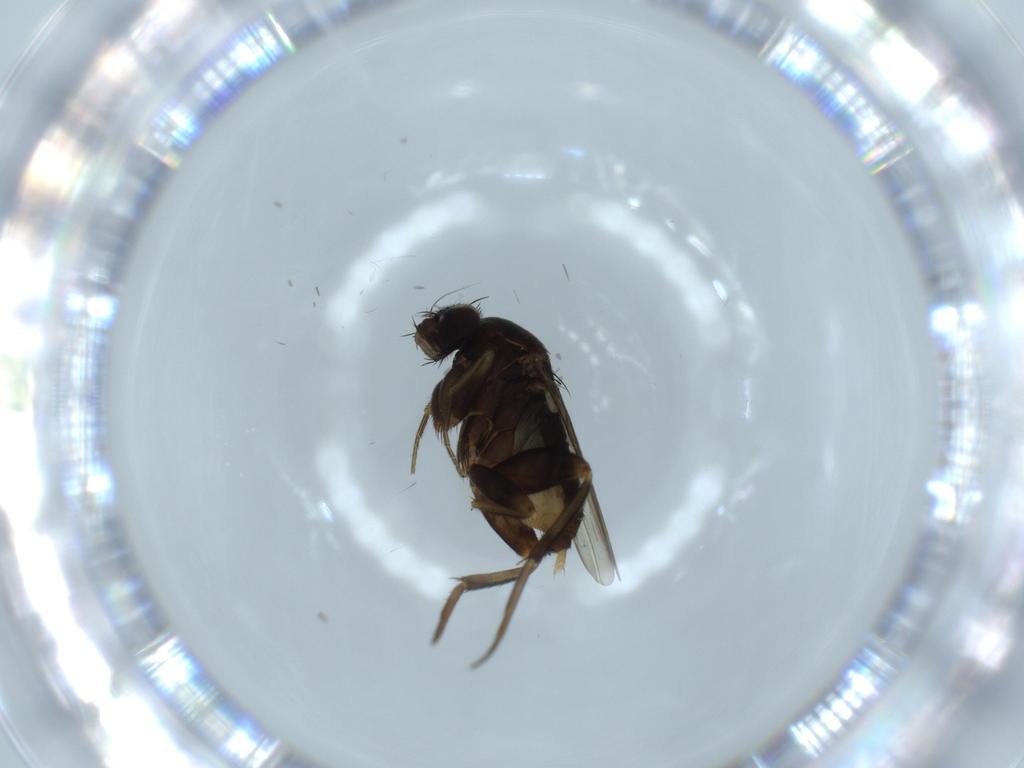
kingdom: Animalia
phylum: Arthropoda
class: Insecta
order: Diptera
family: Phoridae
